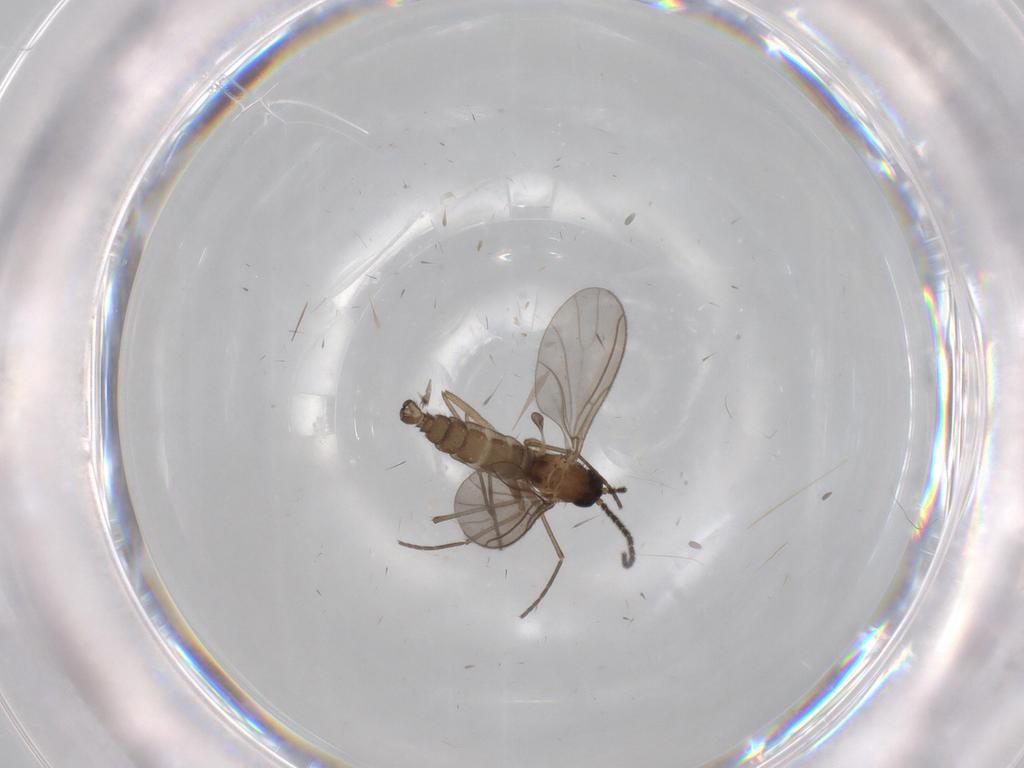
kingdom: Animalia
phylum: Arthropoda
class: Insecta
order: Diptera
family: Sciaridae
